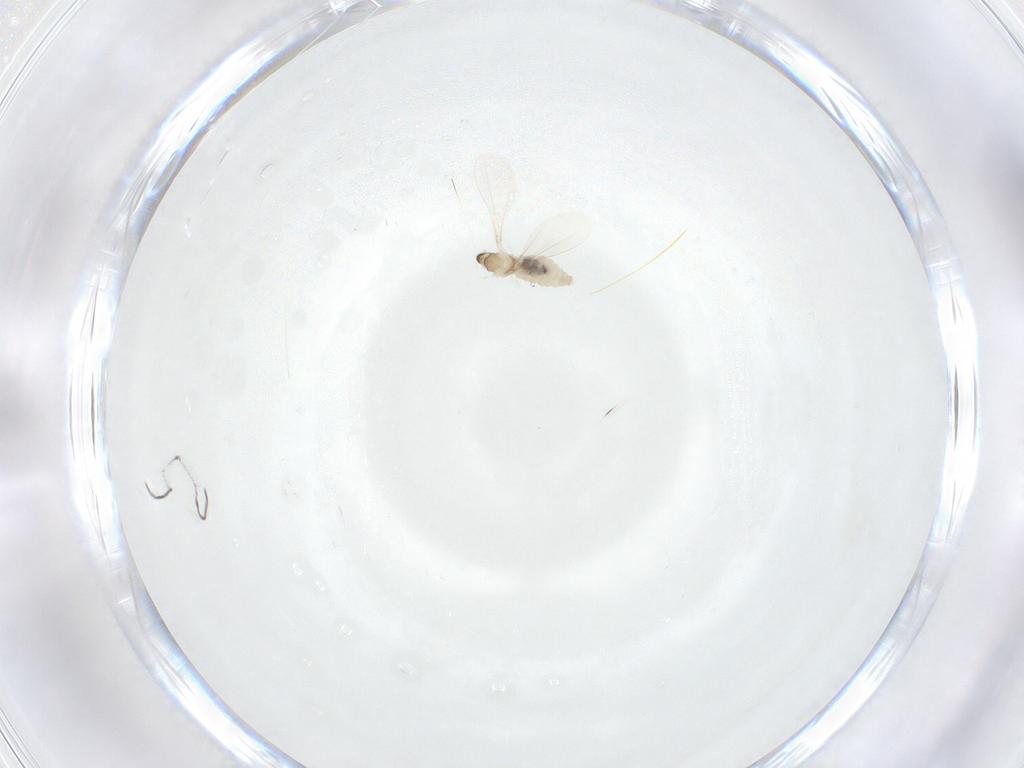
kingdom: Animalia
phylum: Arthropoda
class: Insecta
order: Diptera
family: Cecidomyiidae
